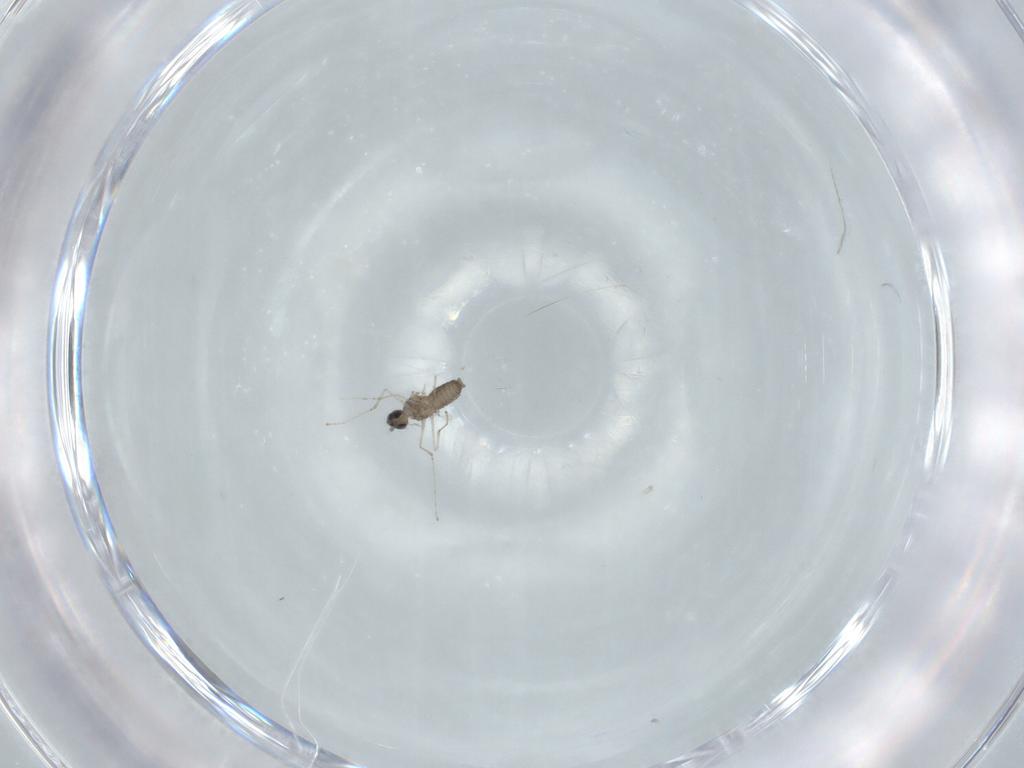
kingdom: Animalia
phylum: Arthropoda
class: Insecta
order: Diptera
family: Cecidomyiidae
